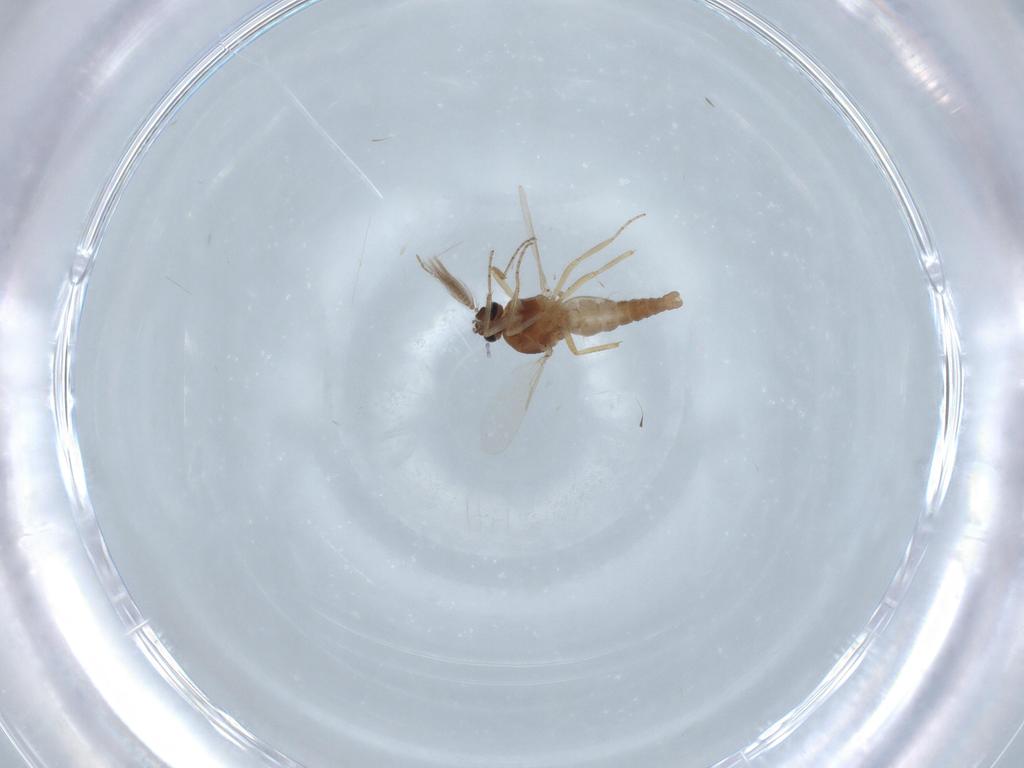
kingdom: Animalia
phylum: Arthropoda
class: Insecta
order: Diptera
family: Ceratopogonidae
